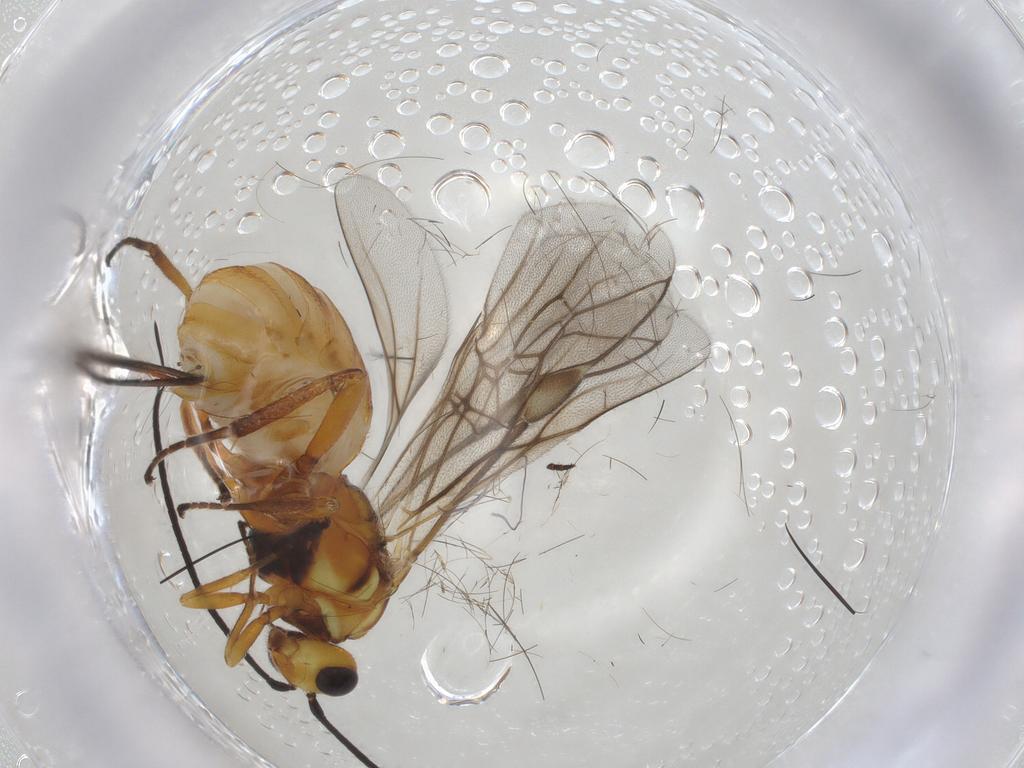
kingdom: Animalia
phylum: Arthropoda
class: Insecta
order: Hymenoptera
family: Braconidae
